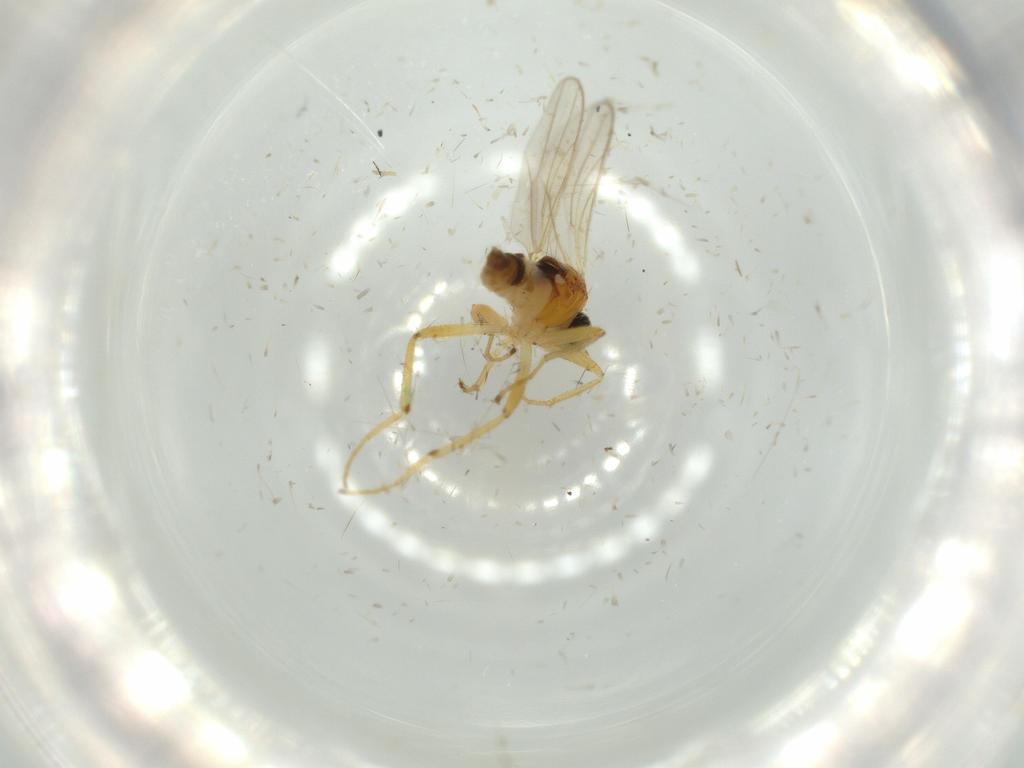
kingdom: Animalia
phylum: Arthropoda
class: Insecta
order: Diptera
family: Hybotidae
